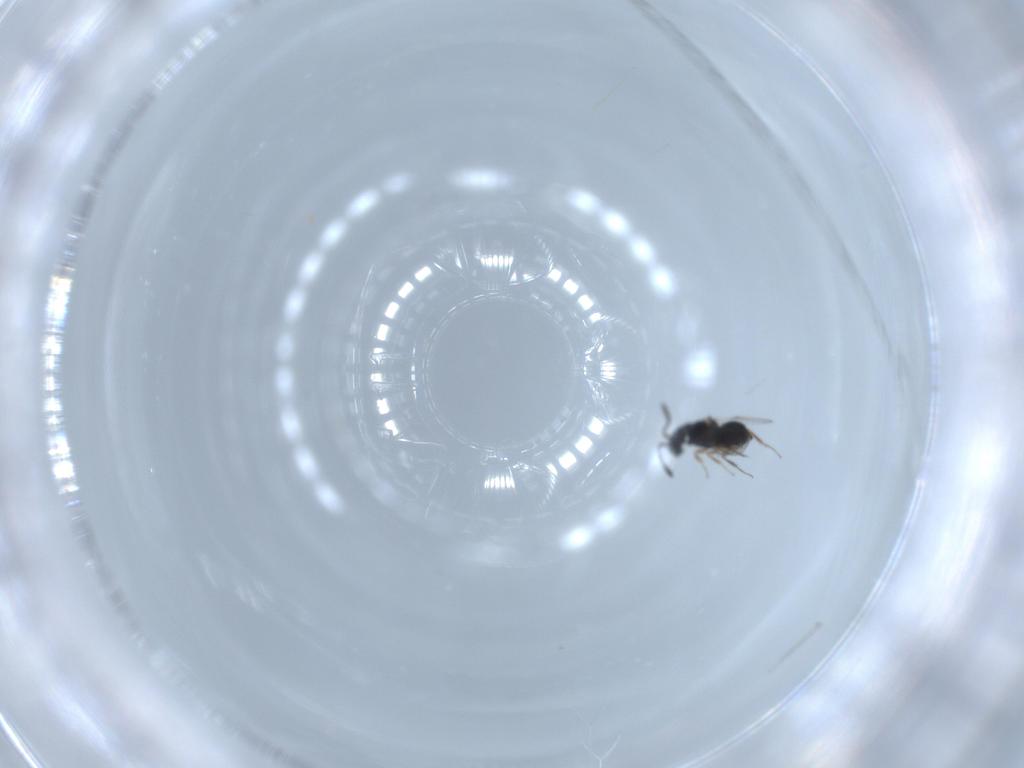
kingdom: Animalia
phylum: Arthropoda
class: Insecta
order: Hymenoptera
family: Scelionidae
